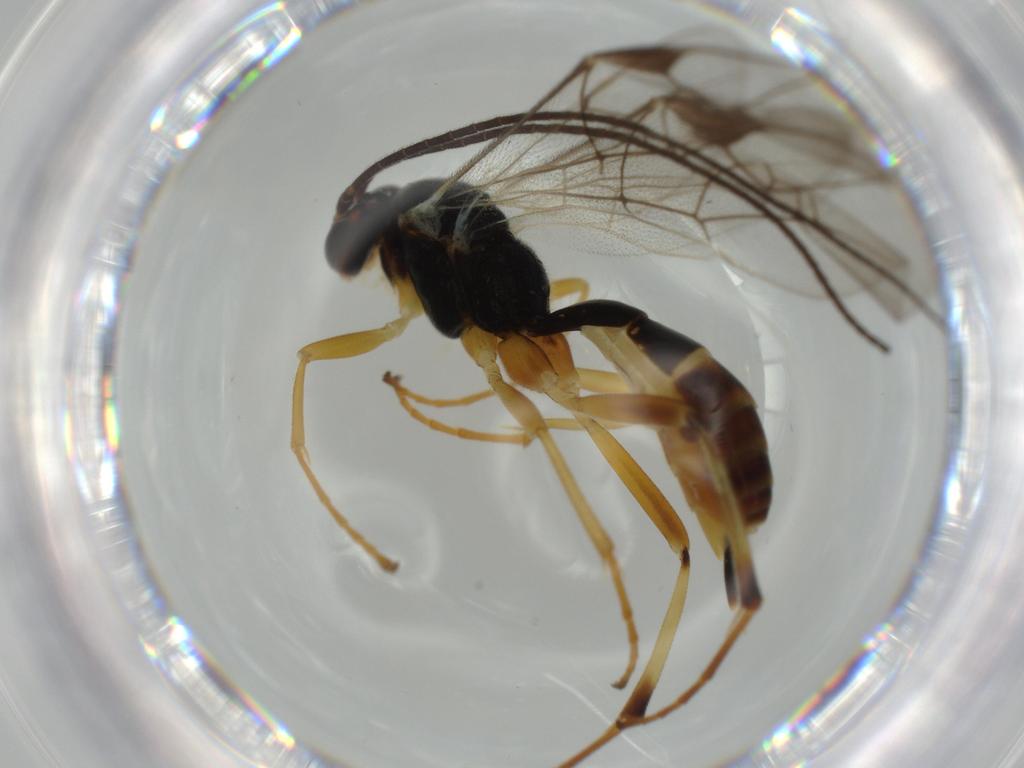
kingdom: Animalia
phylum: Arthropoda
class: Insecta
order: Hymenoptera
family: Ichneumonidae
